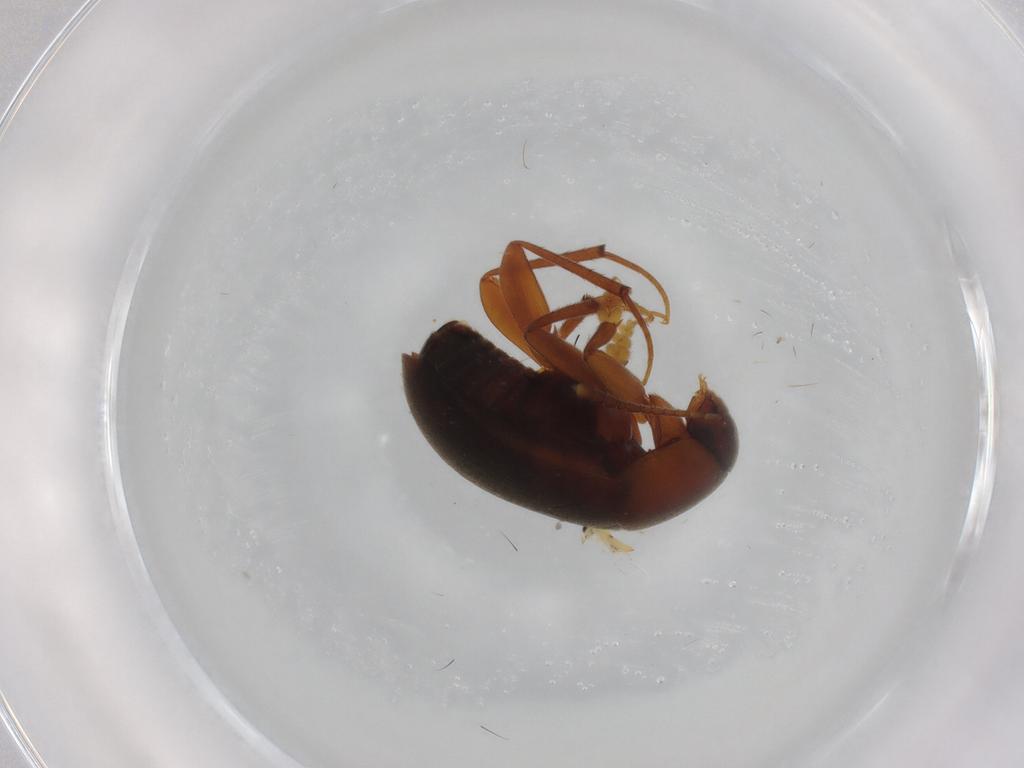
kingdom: Animalia
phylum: Arthropoda
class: Insecta
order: Coleoptera
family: Leiodidae
